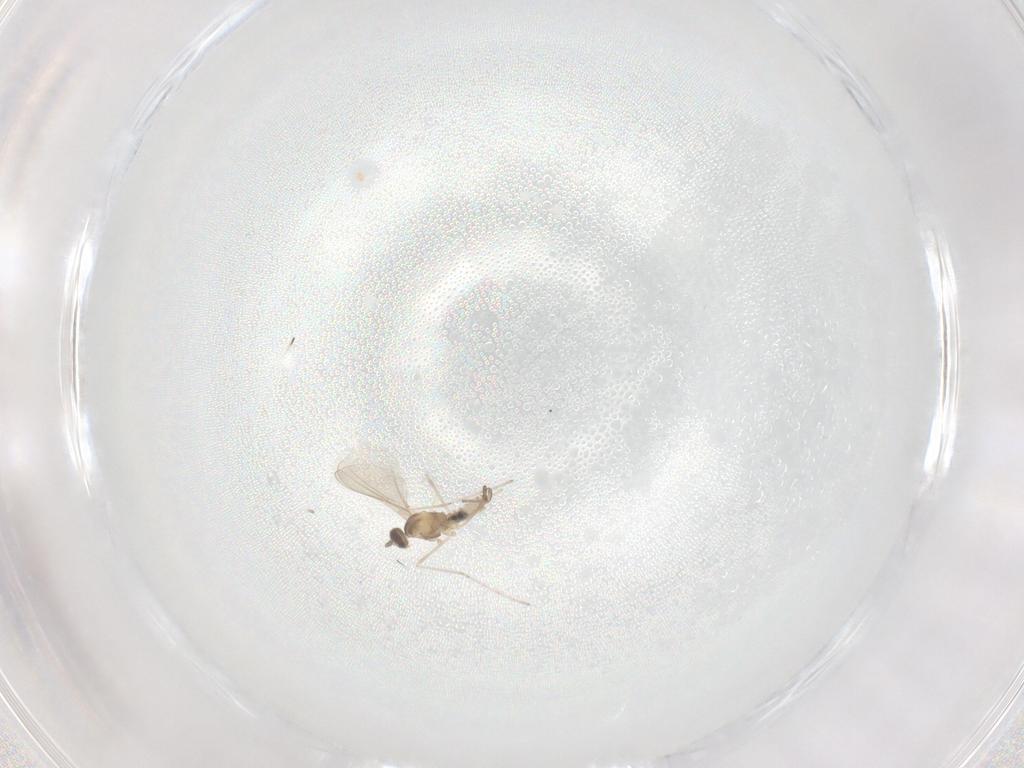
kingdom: Animalia
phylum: Arthropoda
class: Insecta
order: Diptera
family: Cecidomyiidae
